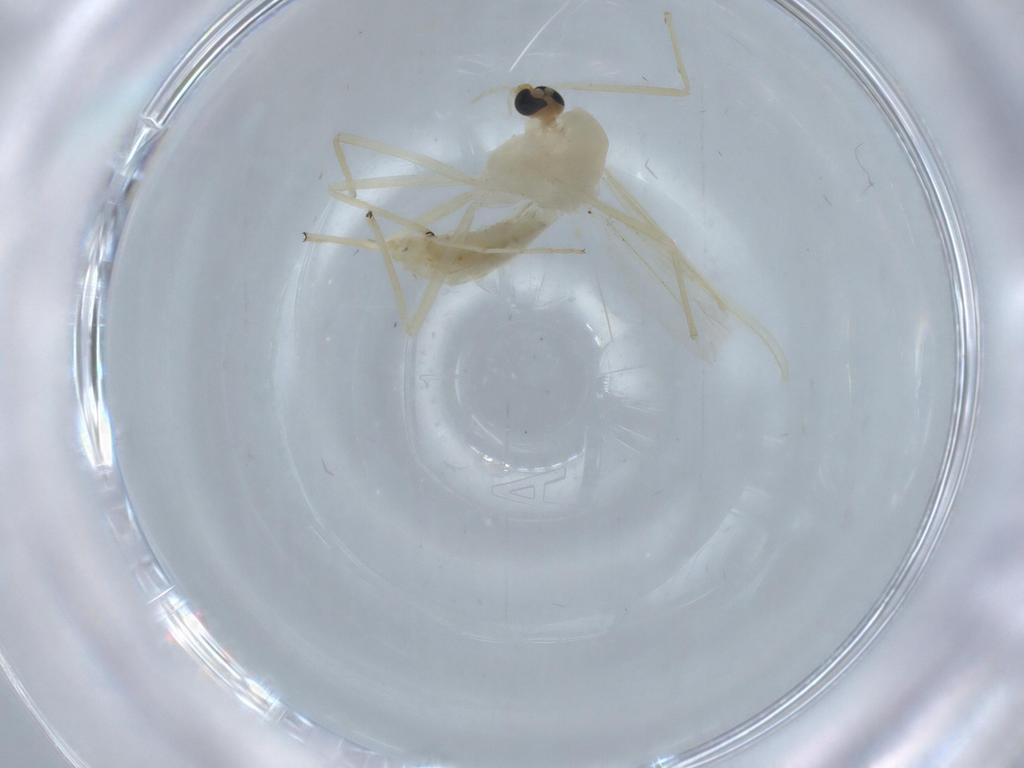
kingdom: Animalia
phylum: Arthropoda
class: Insecta
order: Diptera
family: Chironomidae
